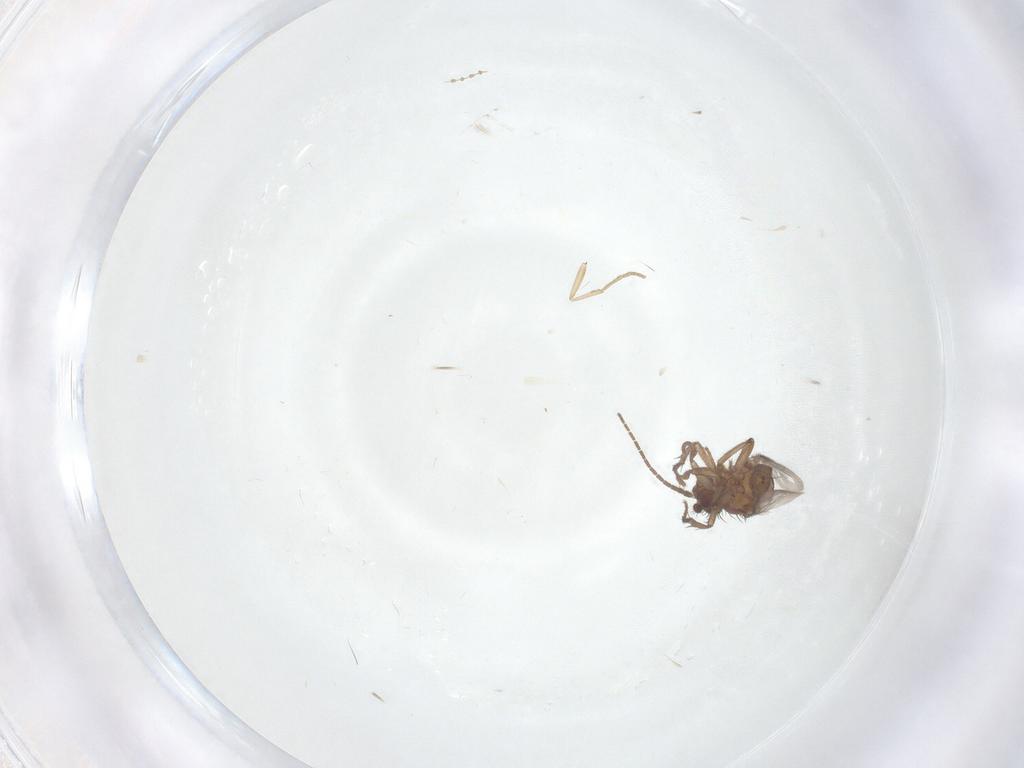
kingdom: Animalia
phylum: Arthropoda
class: Insecta
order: Diptera
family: Sphaeroceridae
